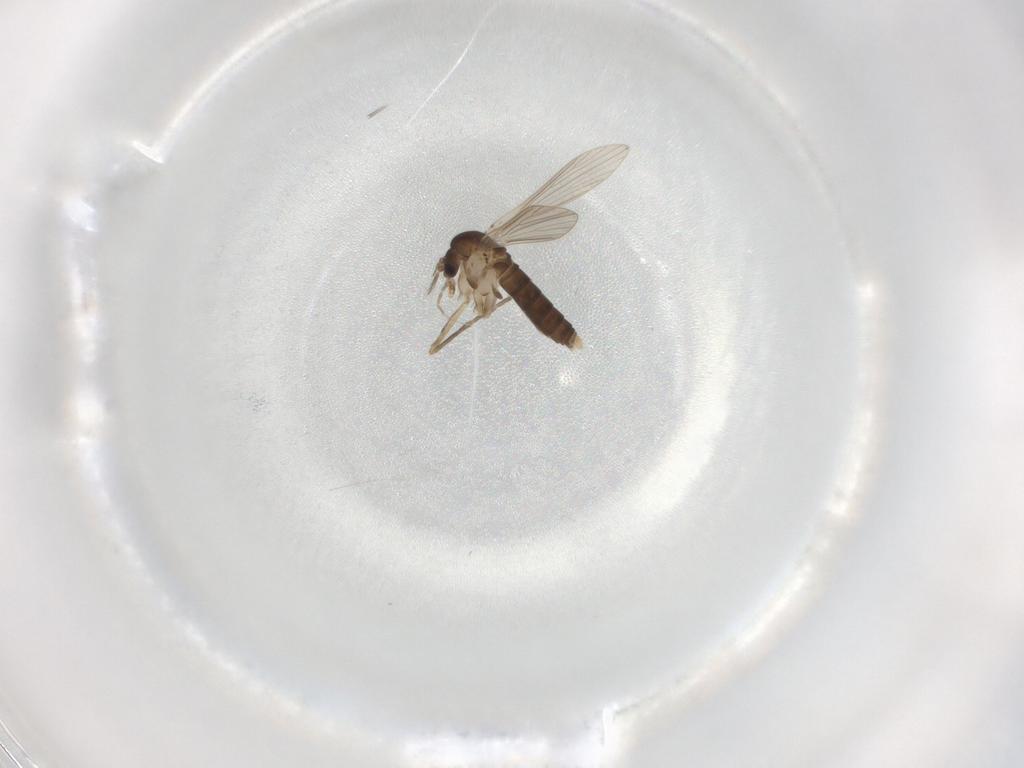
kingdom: Animalia
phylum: Arthropoda
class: Insecta
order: Diptera
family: Psychodidae
